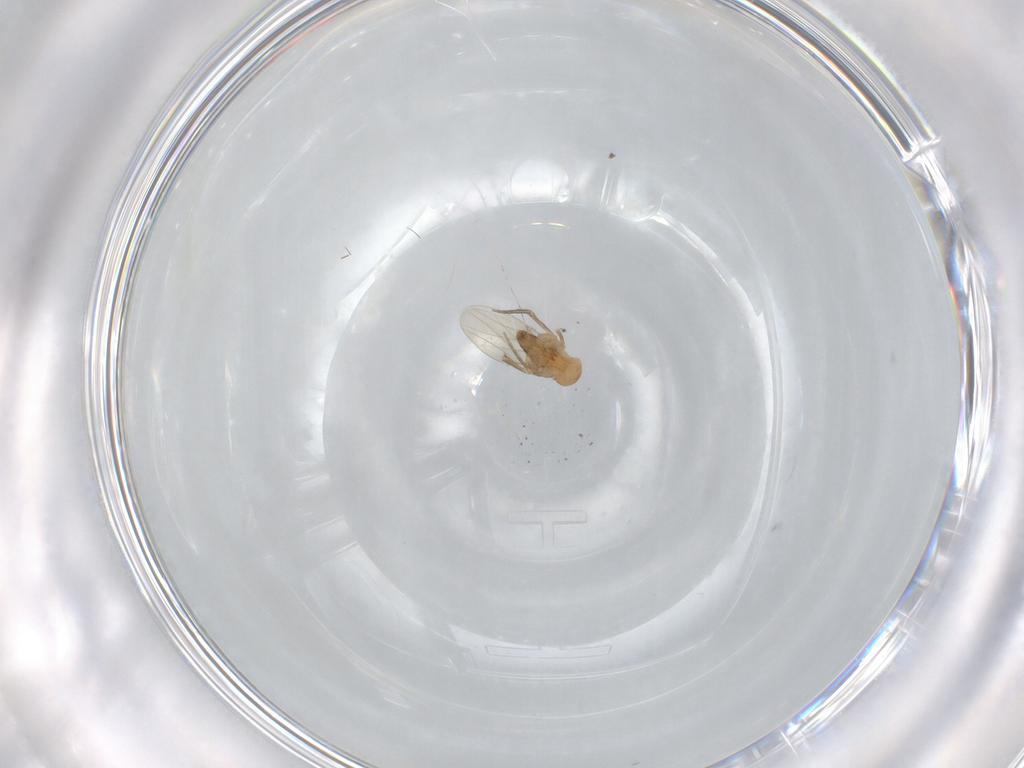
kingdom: Animalia
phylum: Arthropoda
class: Insecta
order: Diptera
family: Phoridae
